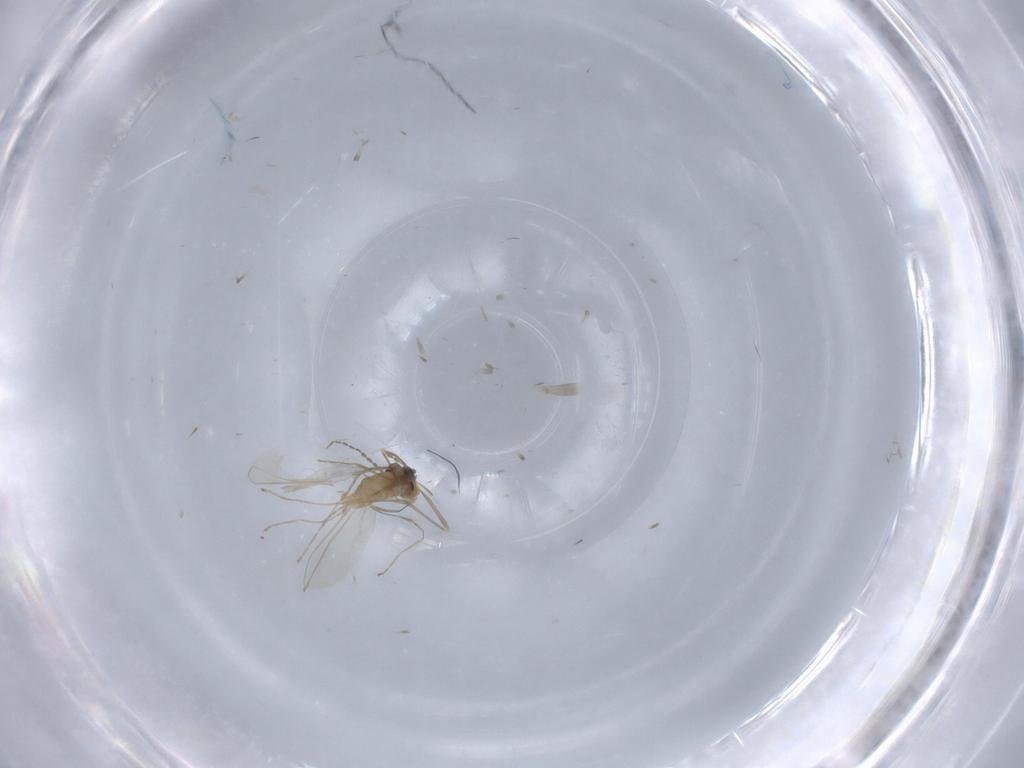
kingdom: Animalia
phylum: Arthropoda
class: Insecta
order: Diptera
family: Cecidomyiidae
